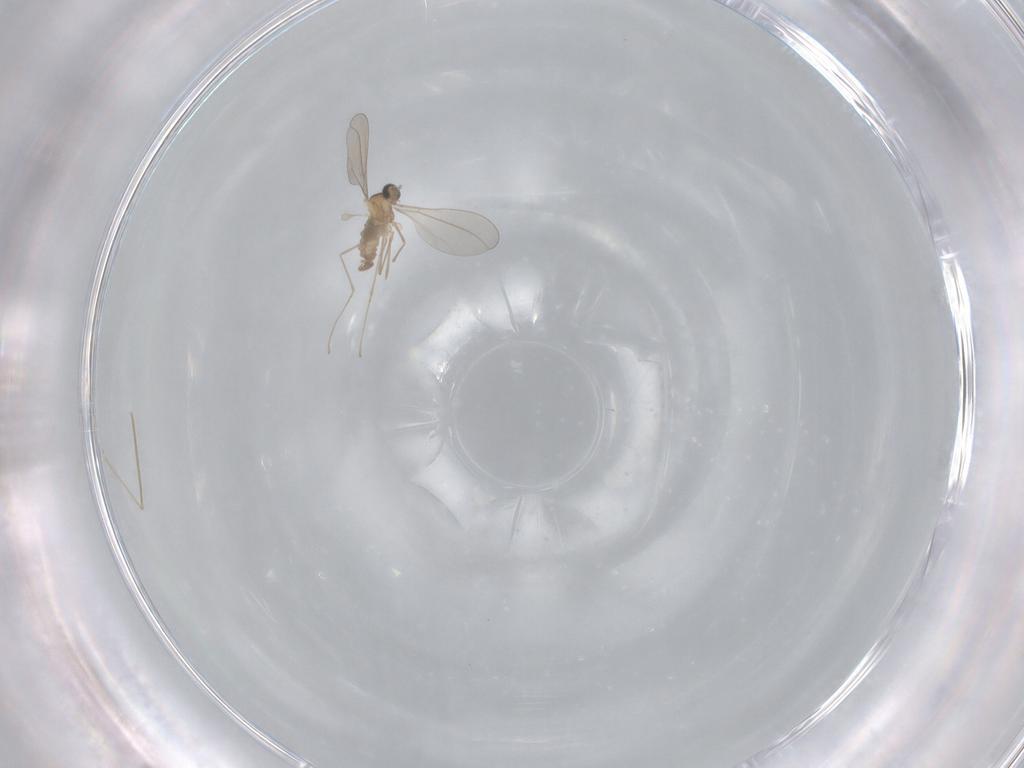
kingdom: Animalia
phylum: Arthropoda
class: Insecta
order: Diptera
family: Cecidomyiidae
